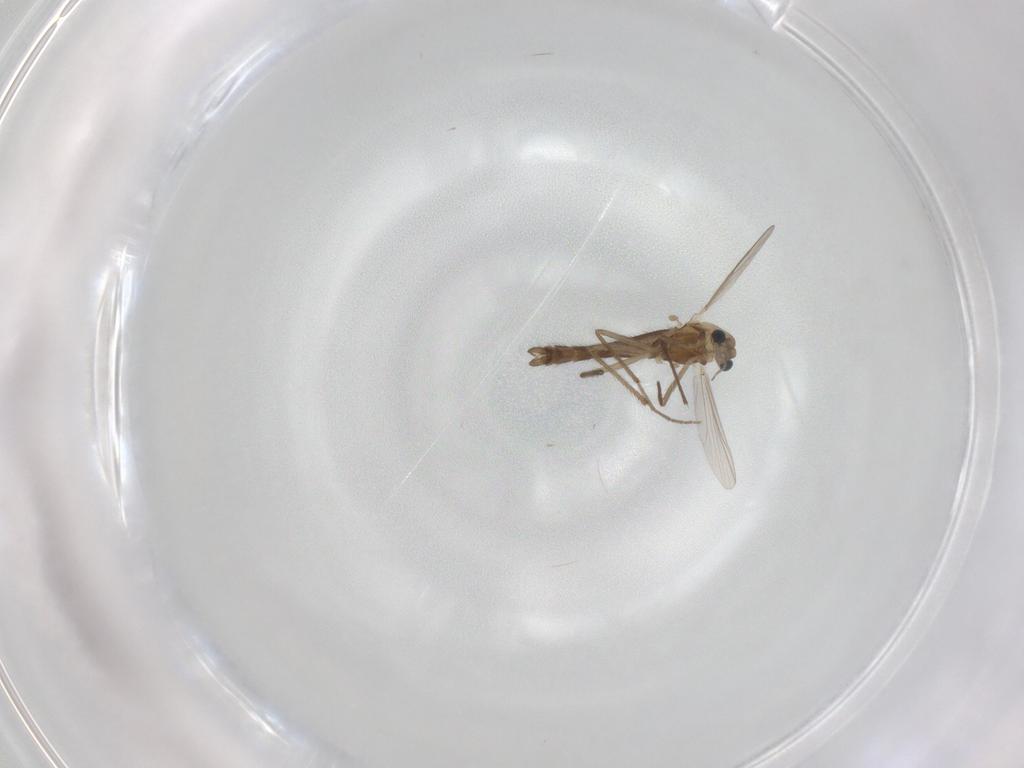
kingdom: Animalia
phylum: Arthropoda
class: Insecta
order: Diptera
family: Dolichopodidae
